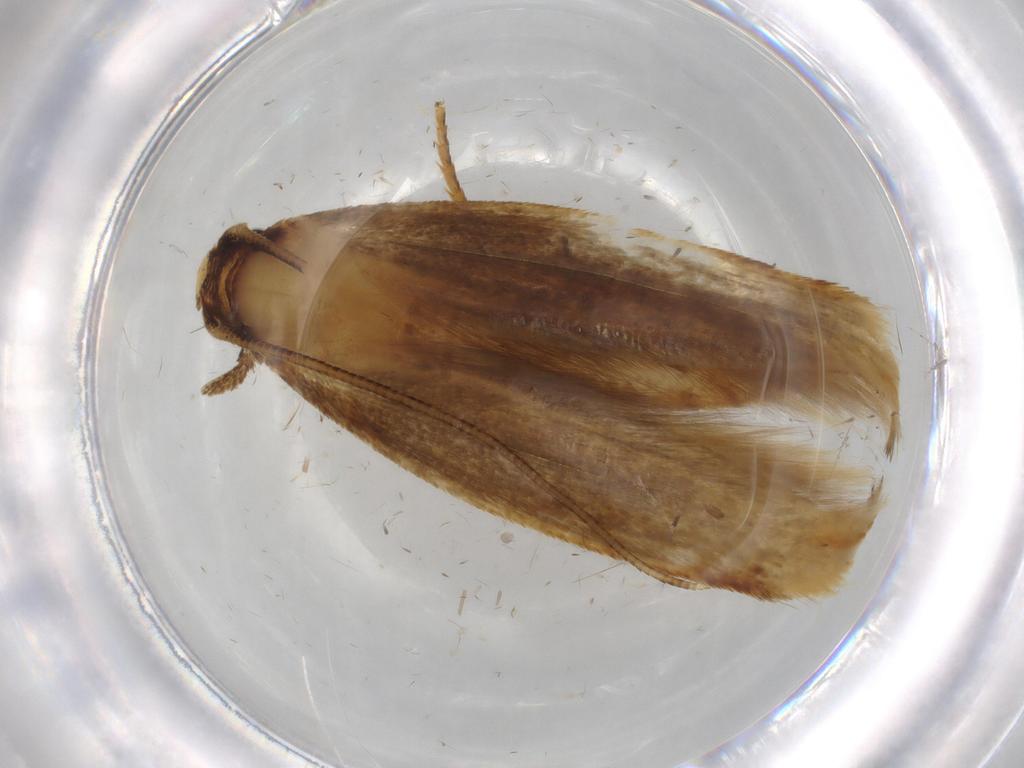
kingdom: Animalia
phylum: Arthropoda
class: Insecta
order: Lepidoptera
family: Tineidae
